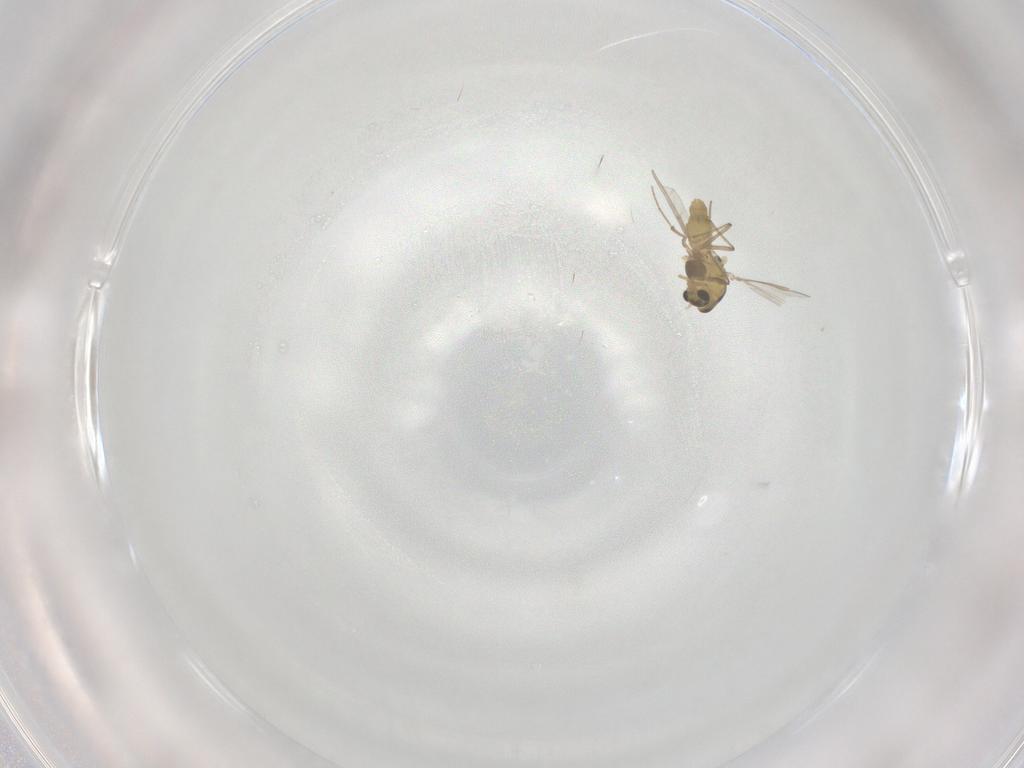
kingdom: Animalia
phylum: Arthropoda
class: Insecta
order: Diptera
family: Chironomidae
